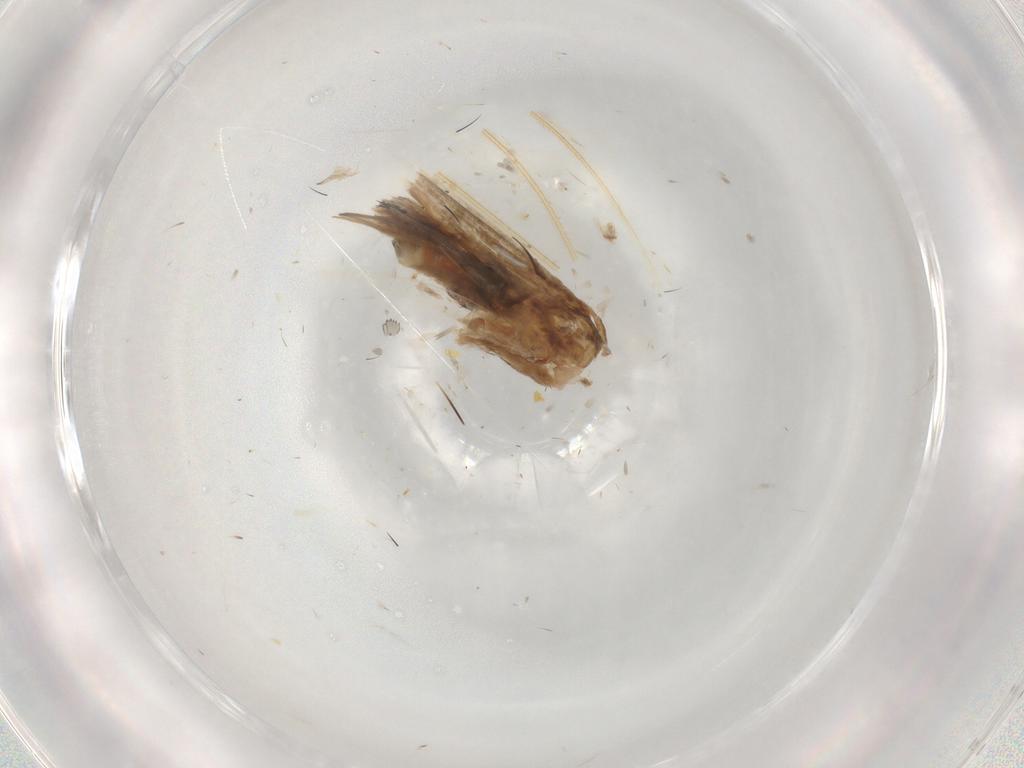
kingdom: Animalia
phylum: Arthropoda
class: Insecta
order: Lepidoptera
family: Geometridae
